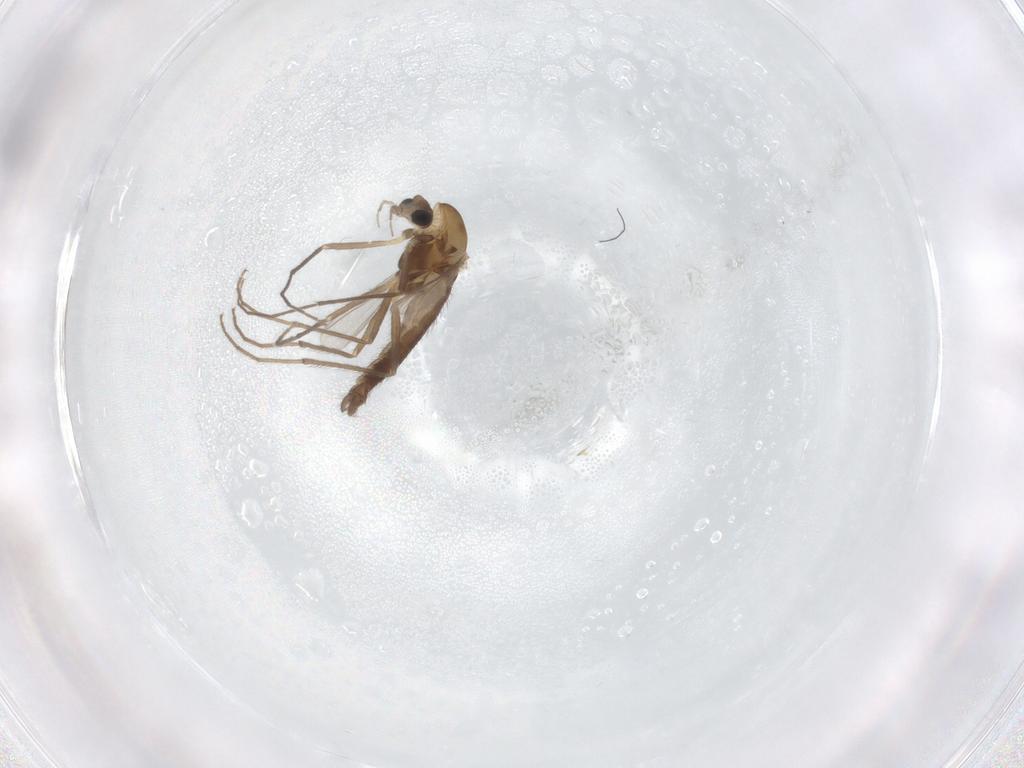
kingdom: Animalia
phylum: Arthropoda
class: Insecta
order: Diptera
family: Chironomidae
